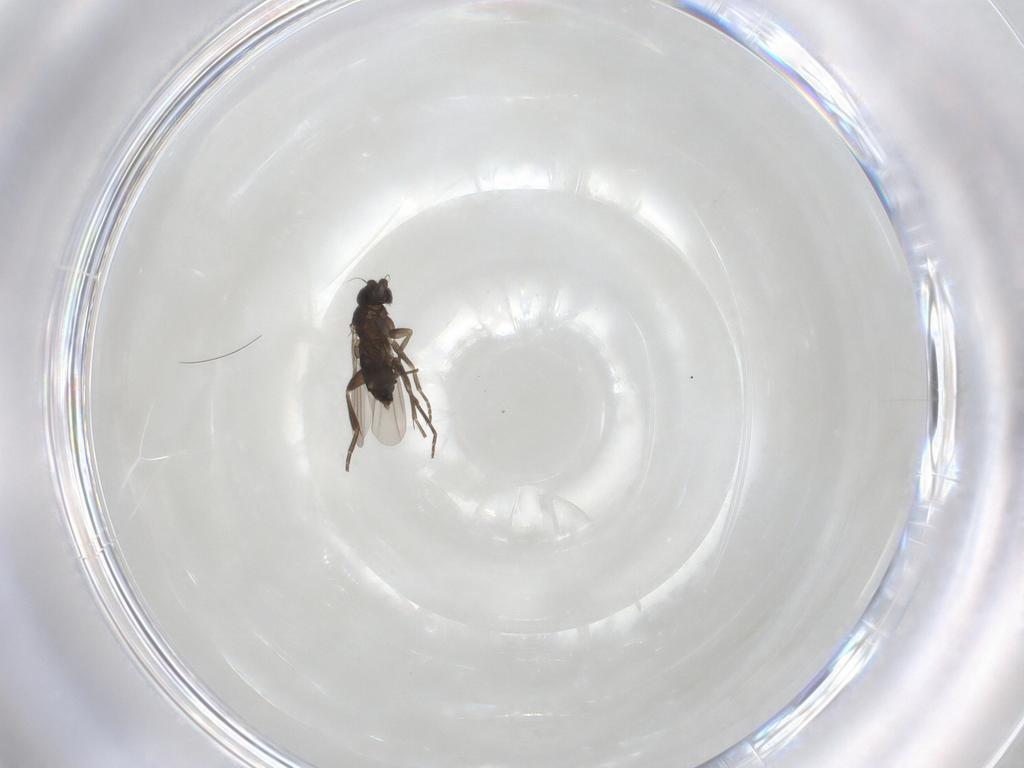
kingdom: Animalia
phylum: Arthropoda
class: Insecta
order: Diptera
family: Phoridae
